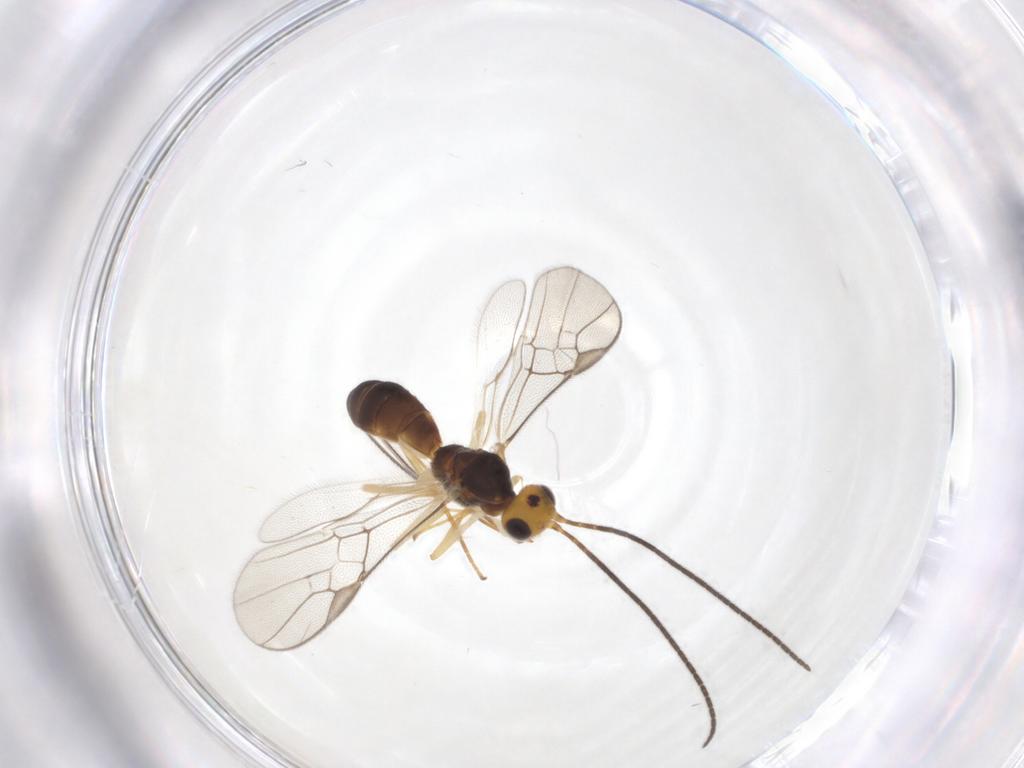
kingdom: Animalia
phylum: Arthropoda
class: Insecta
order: Hymenoptera
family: Braconidae
